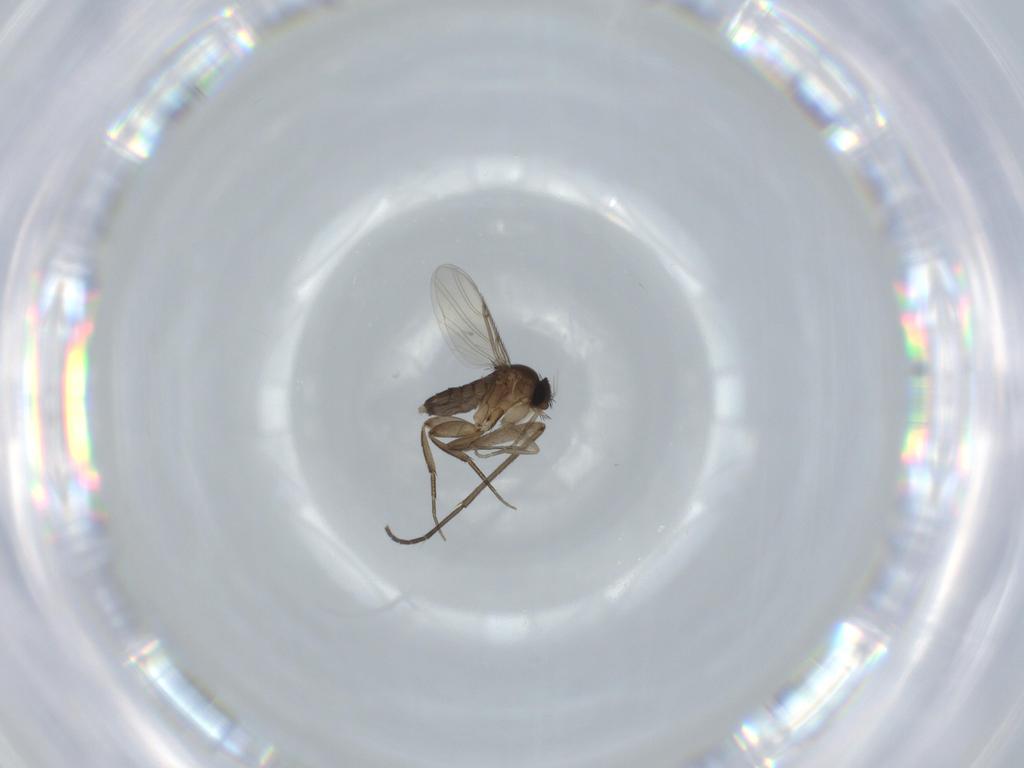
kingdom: Animalia
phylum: Arthropoda
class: Insecta
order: Diptera
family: Phoridae
